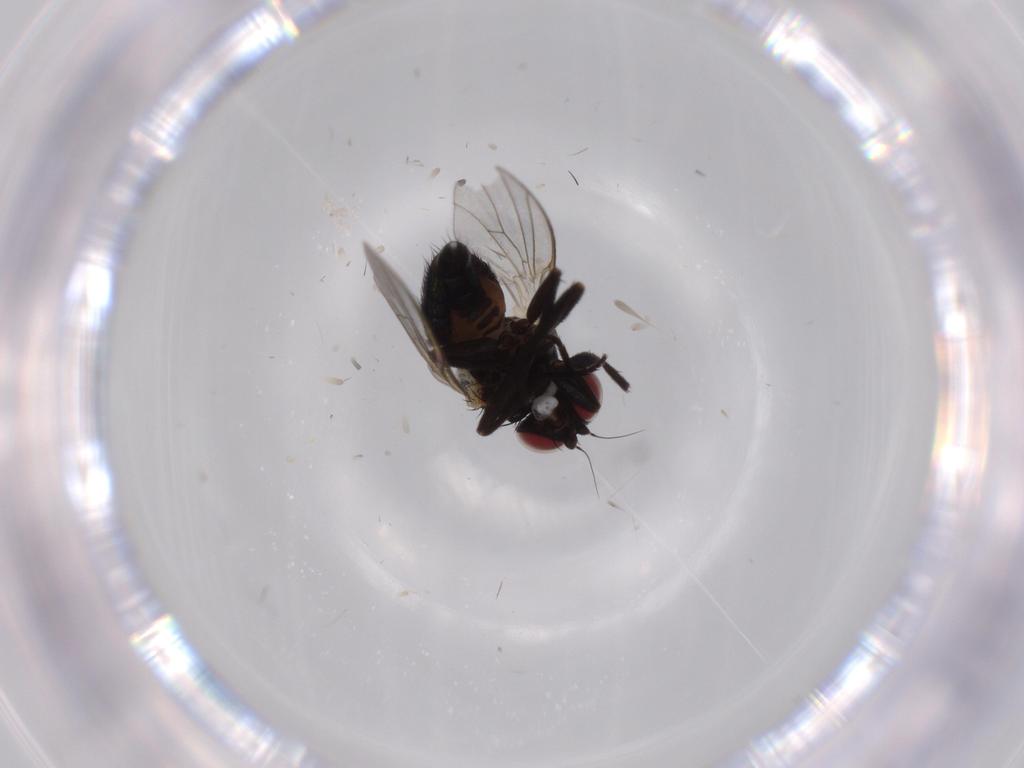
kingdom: Animalia
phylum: Arthropoda
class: Insecta
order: Diptera
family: Agromyzidae
